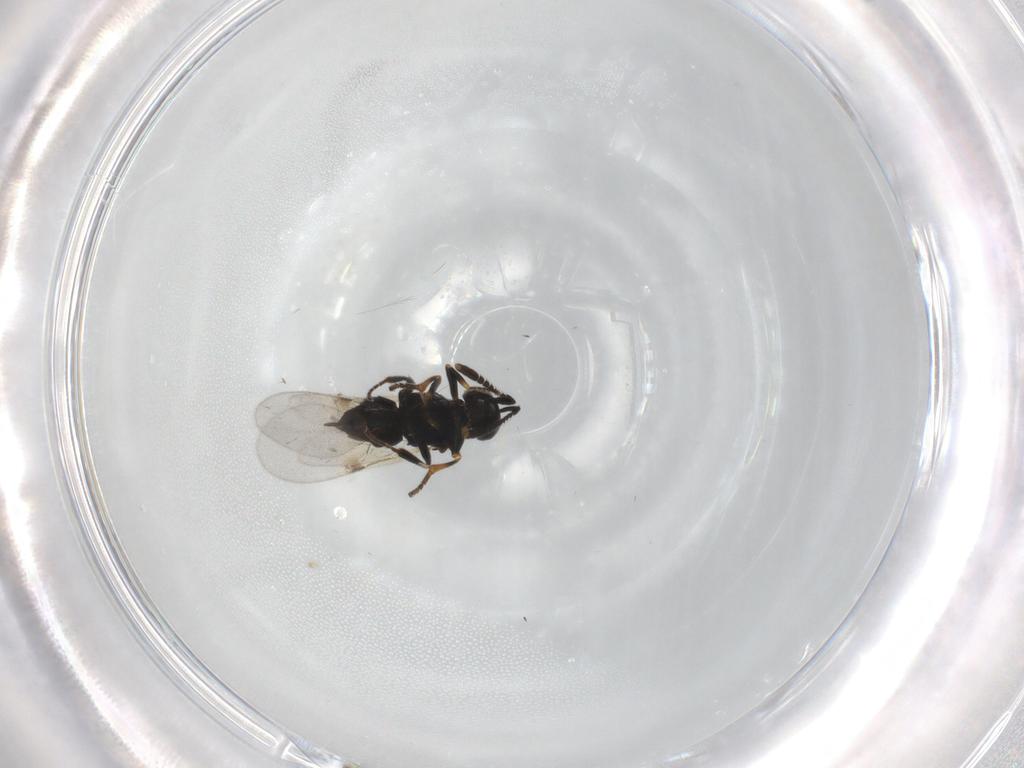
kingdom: Animalia
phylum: Arthropoda
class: Insecta
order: Hymenoptera
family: Encyrtidae
